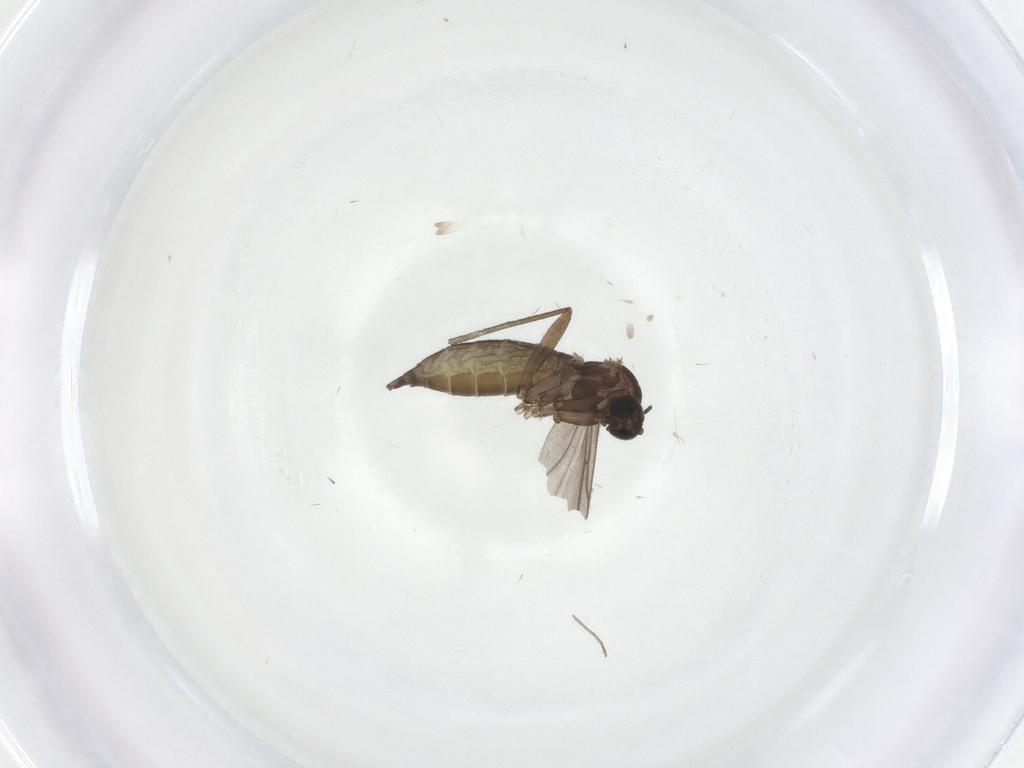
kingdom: Animalia
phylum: Arthropoda
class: Insecta
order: Diptera
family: Sciaridae
